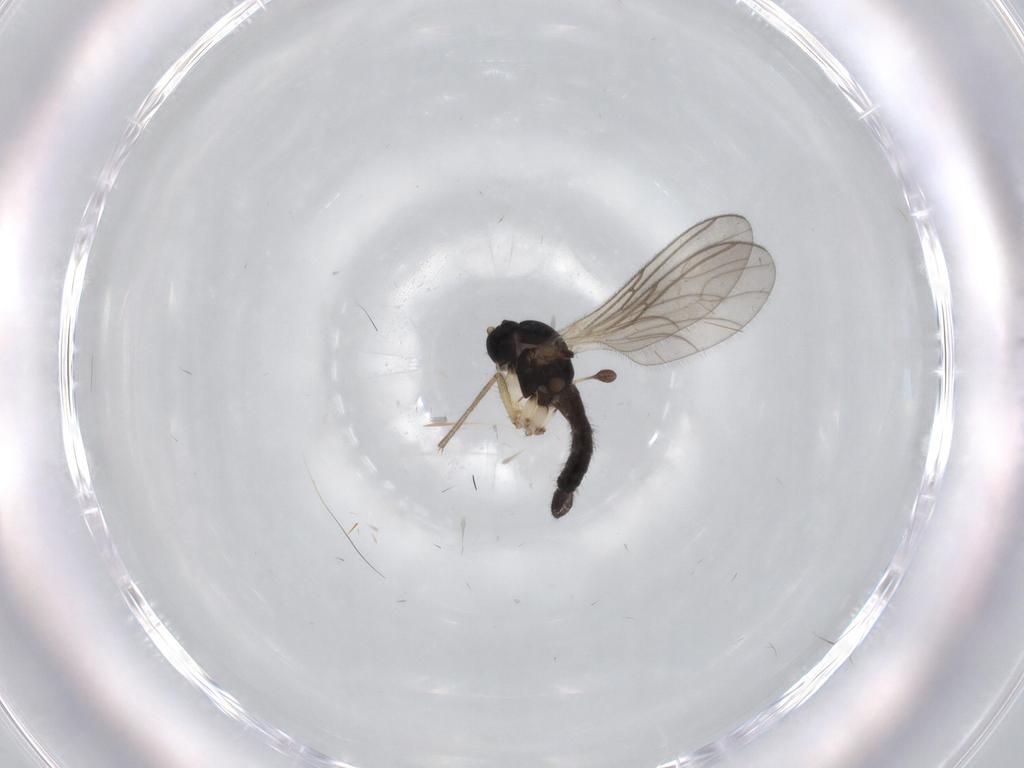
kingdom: Animalia
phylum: Arthropoda
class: Insecta
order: Diptera
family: Sciaridae
